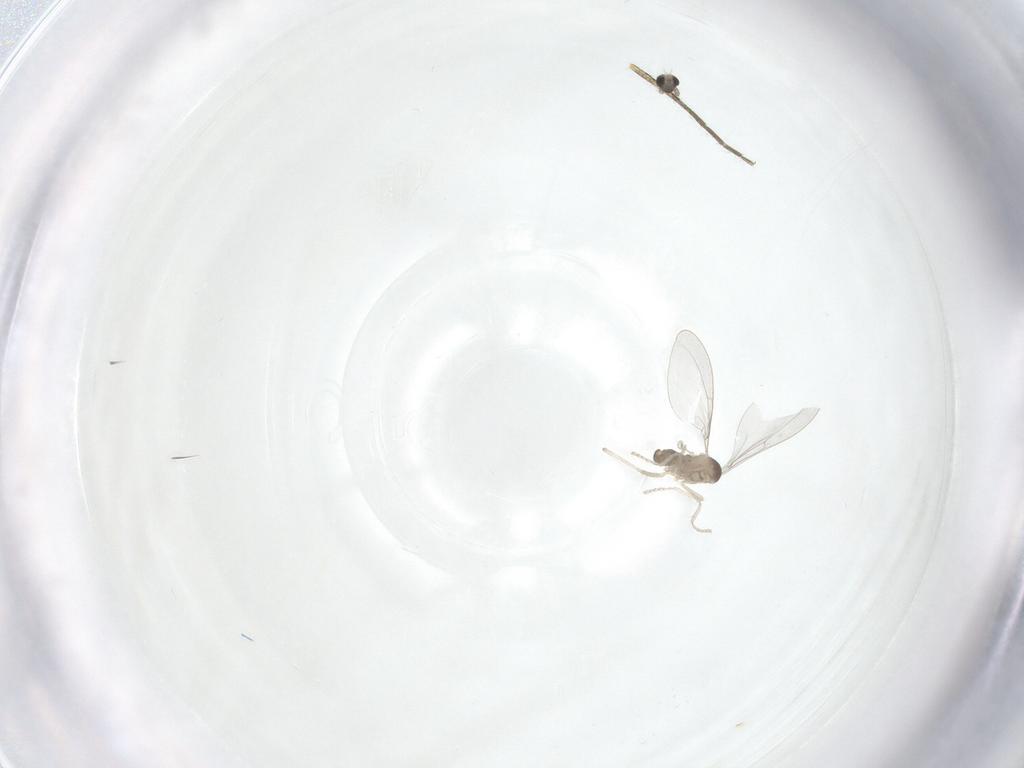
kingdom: Animalia
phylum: Arthropoda
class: Insecta
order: Diptera
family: Cecidomyiidae
